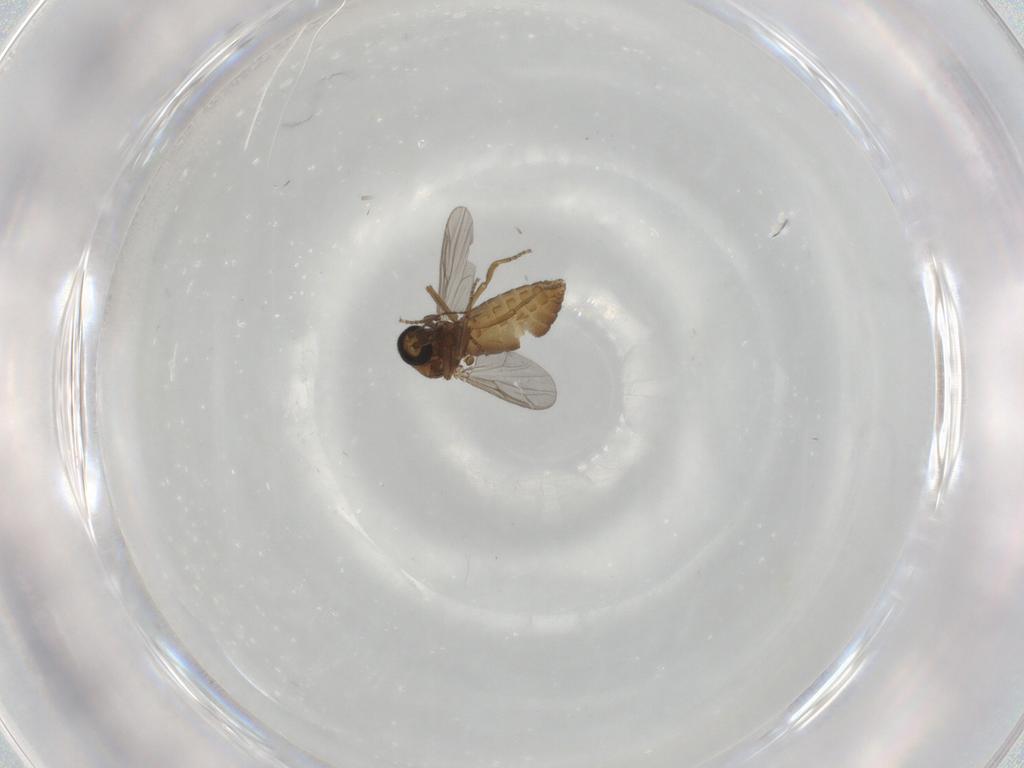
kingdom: Animalia
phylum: Arthropoda
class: Insecta
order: Diptera
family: Ceratopogonidae
